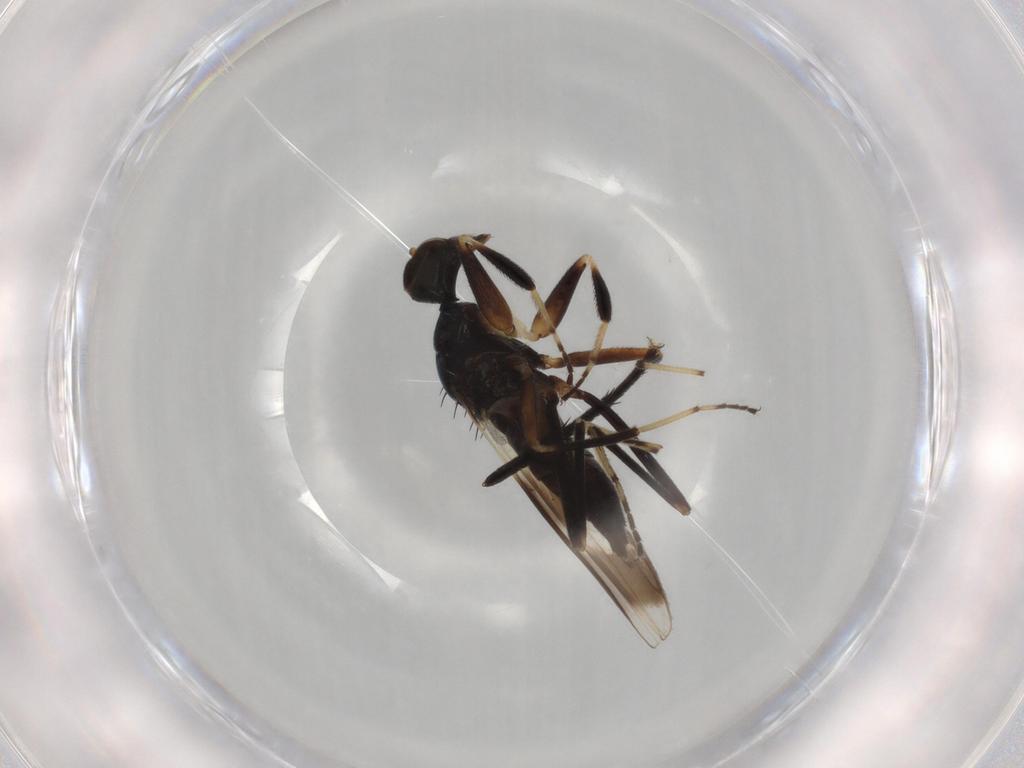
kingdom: Animalia
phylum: Arthropoda
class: Insecta
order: Diptera
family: Hybotidae
